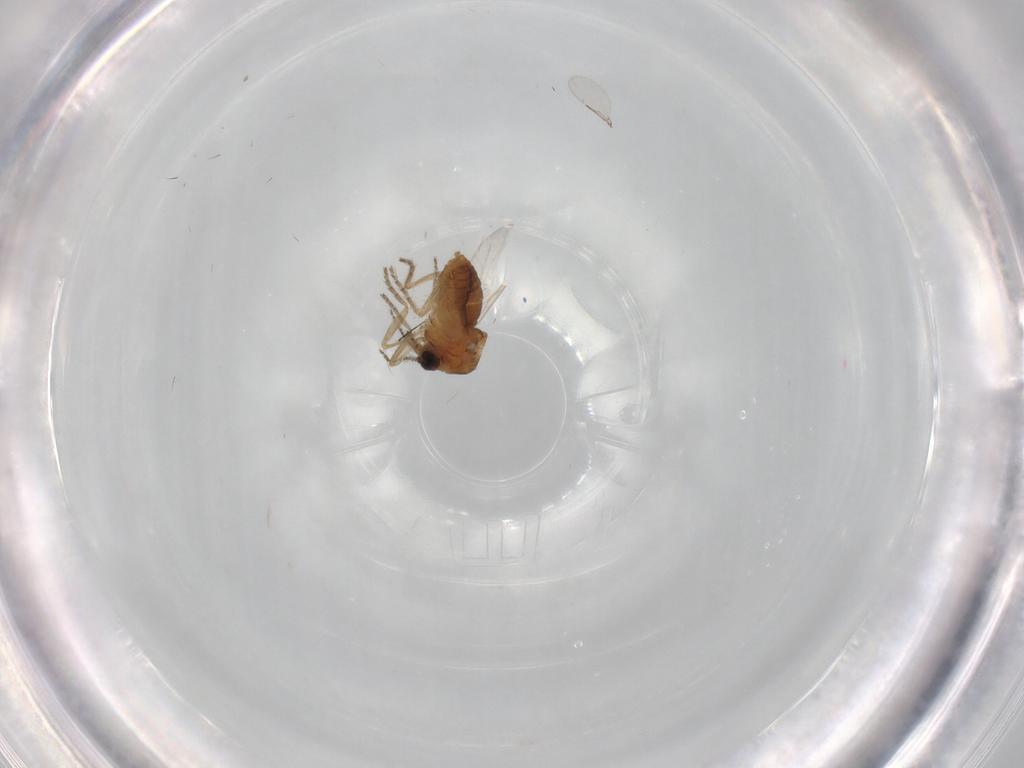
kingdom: Animalia
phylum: Arthropoda
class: Insecta
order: Diptera
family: Ceratopogonidae
